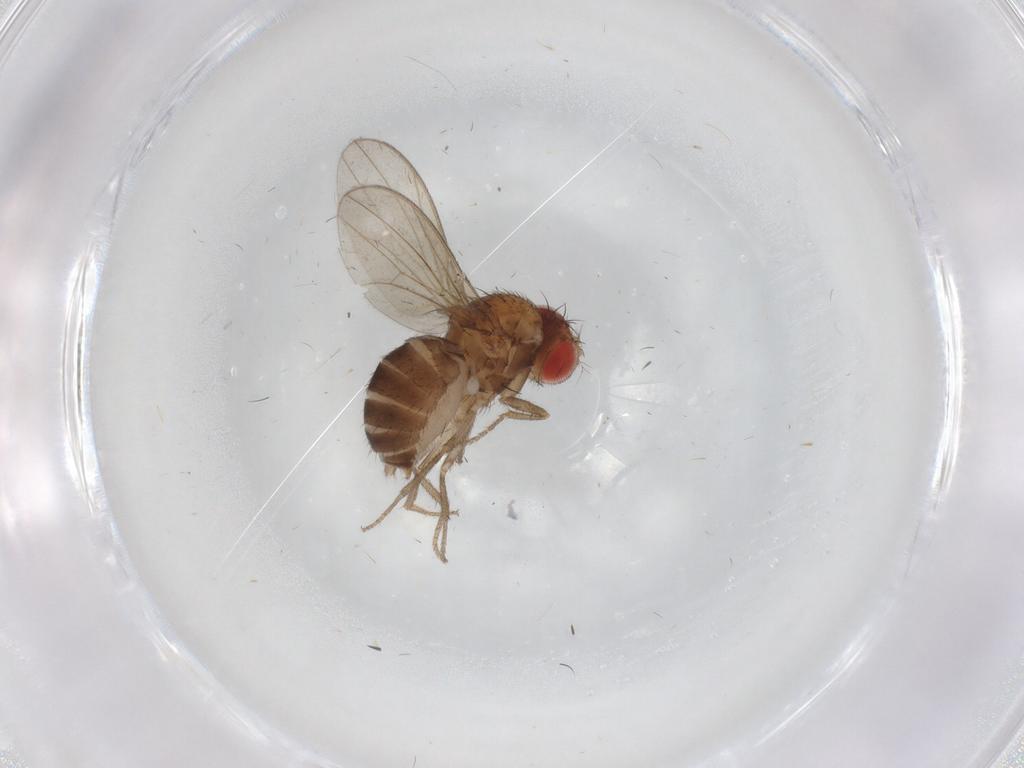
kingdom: Animalia
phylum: Arthropoda
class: Insecta
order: Diptera
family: Drosophilidae
